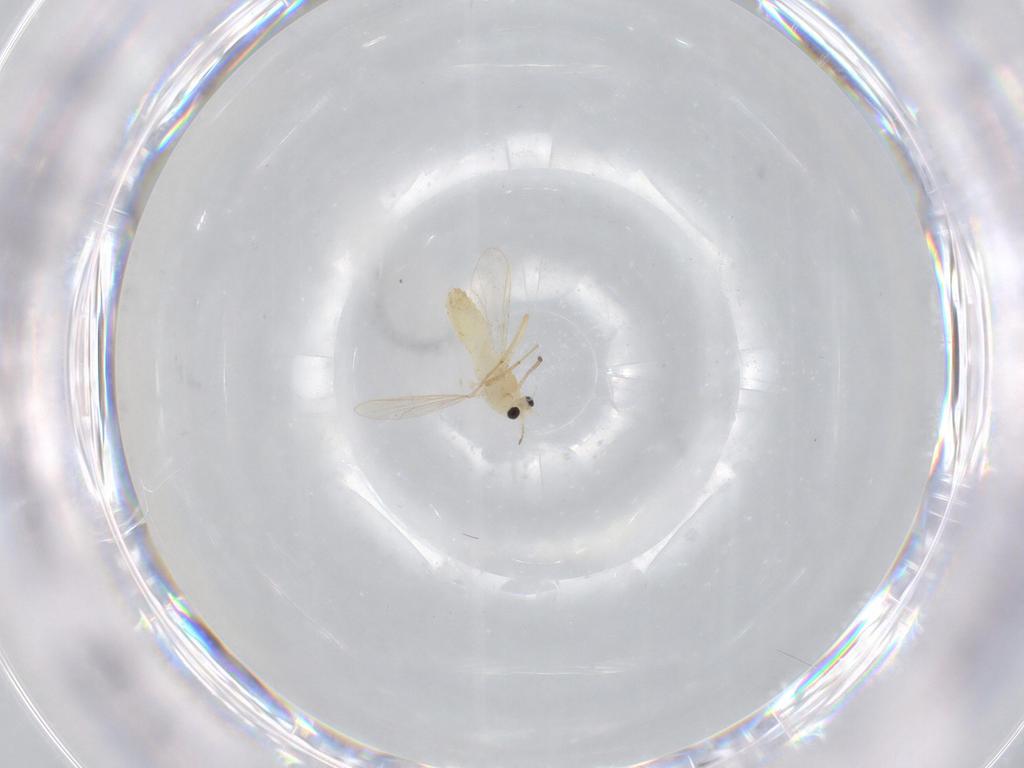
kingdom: Animalia
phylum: Arthropoda
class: Insecta
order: Diptera
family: Chironomidae
